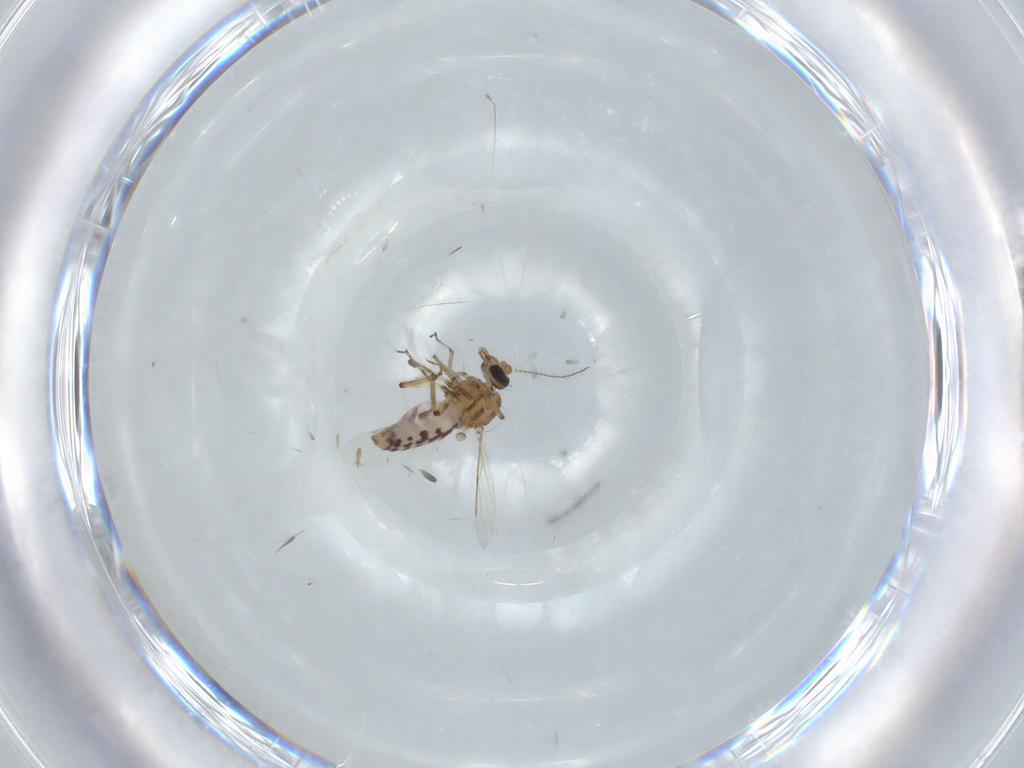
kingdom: Animalia
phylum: Arthropoda
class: Insecta
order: Diptera
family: Ceratopogonidae
